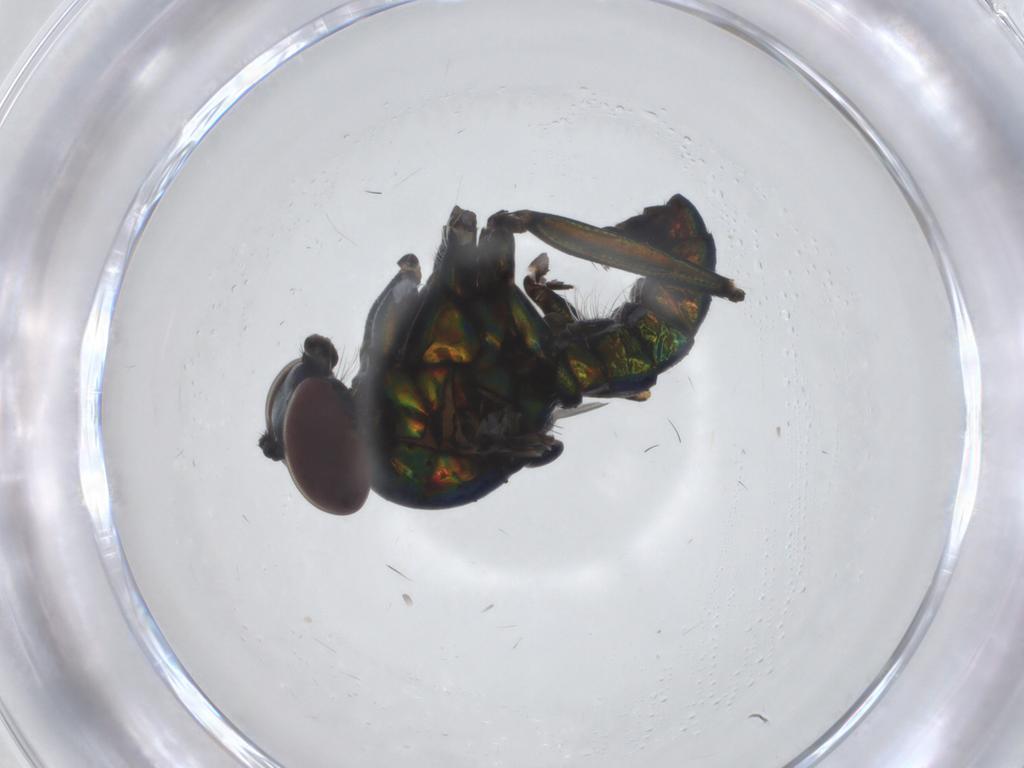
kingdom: Animalia
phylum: Arthropoda
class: Insecta
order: Diptera
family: Dolichopodidae
